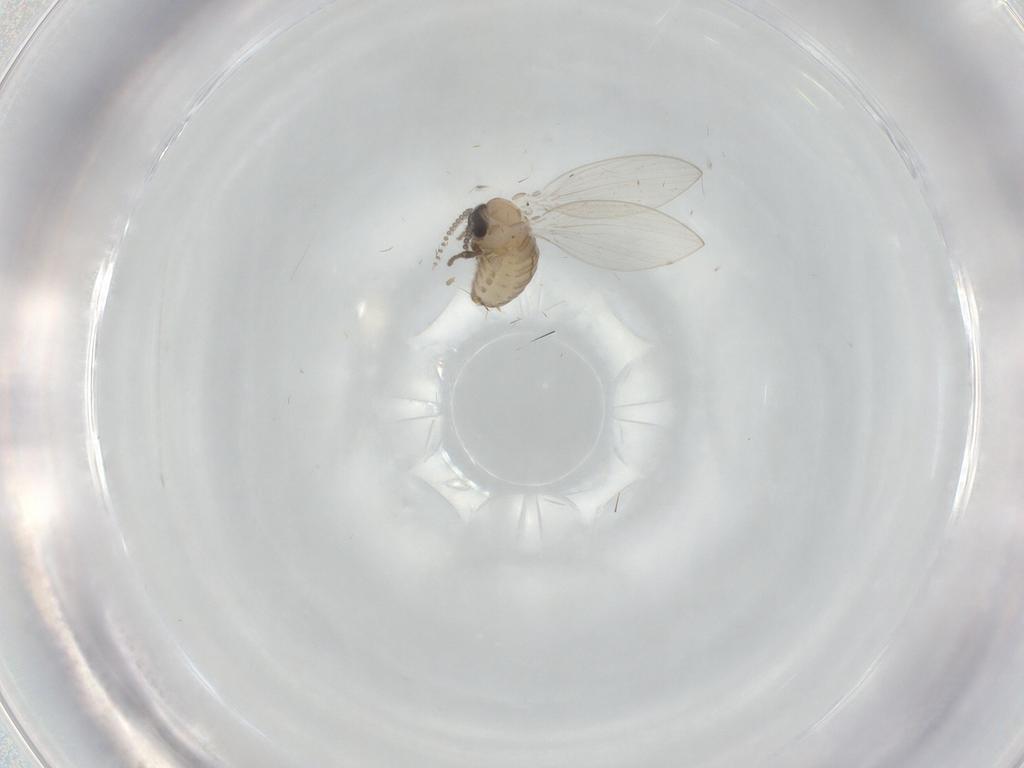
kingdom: Animalia
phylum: Arthropoda
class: Insecta
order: Diptera
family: Psychodidae
